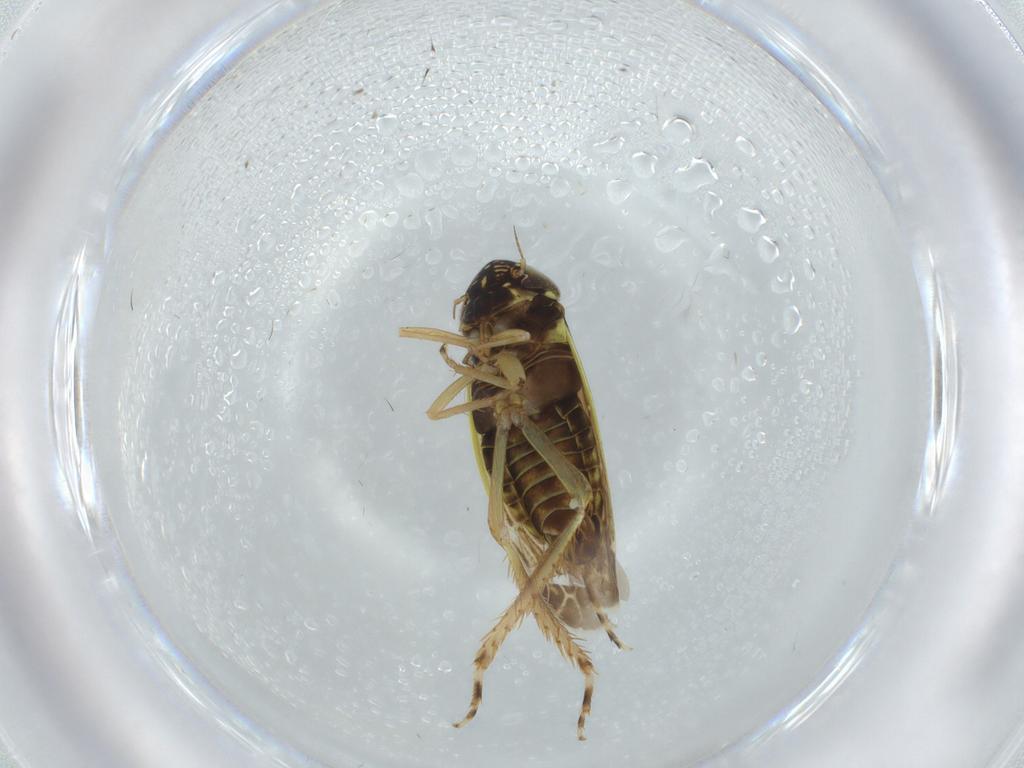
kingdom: Animalia
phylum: Arthropoda
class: Insecta
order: Hemiptera
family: Cicadellidae
